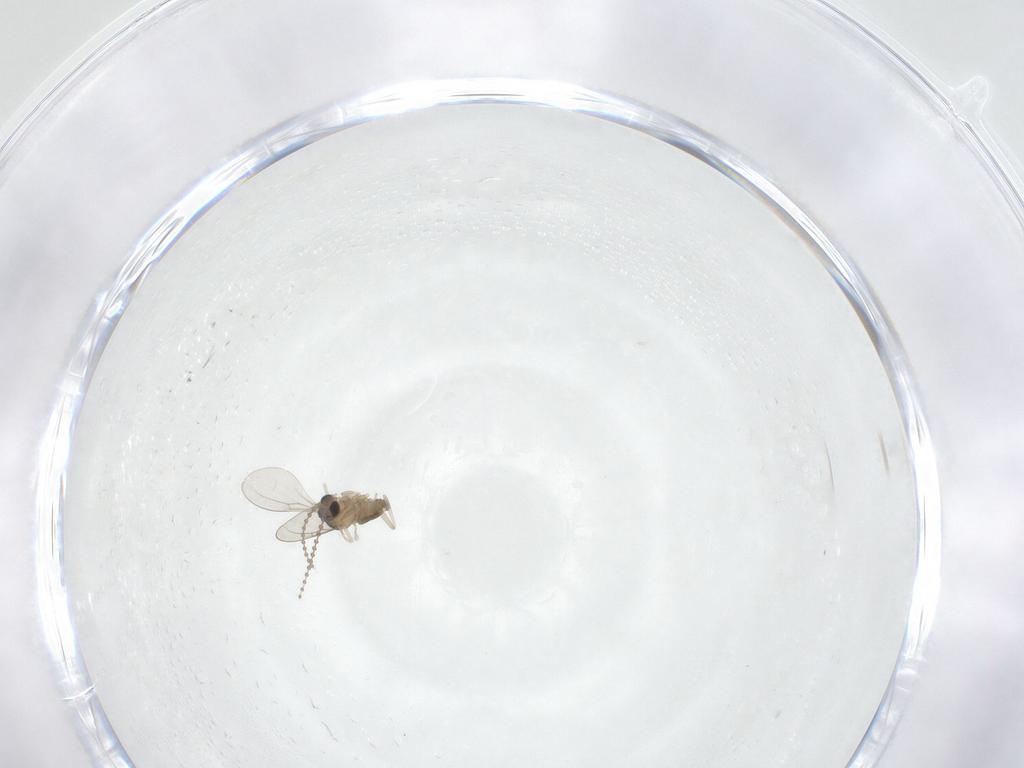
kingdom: Animalia
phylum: Arthropoda
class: Insecta
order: Diptera
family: Cecidomyiidae
